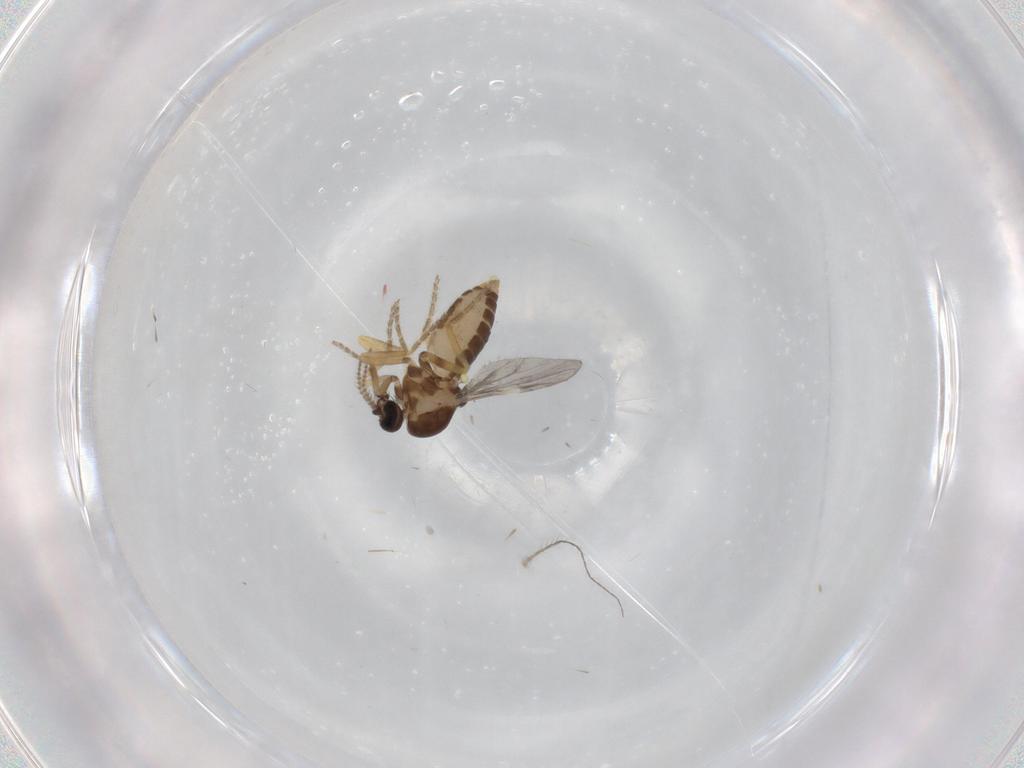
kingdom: Animalia
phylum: Arthropoda
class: Insecta
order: Diptera
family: Ceratopogonidae
